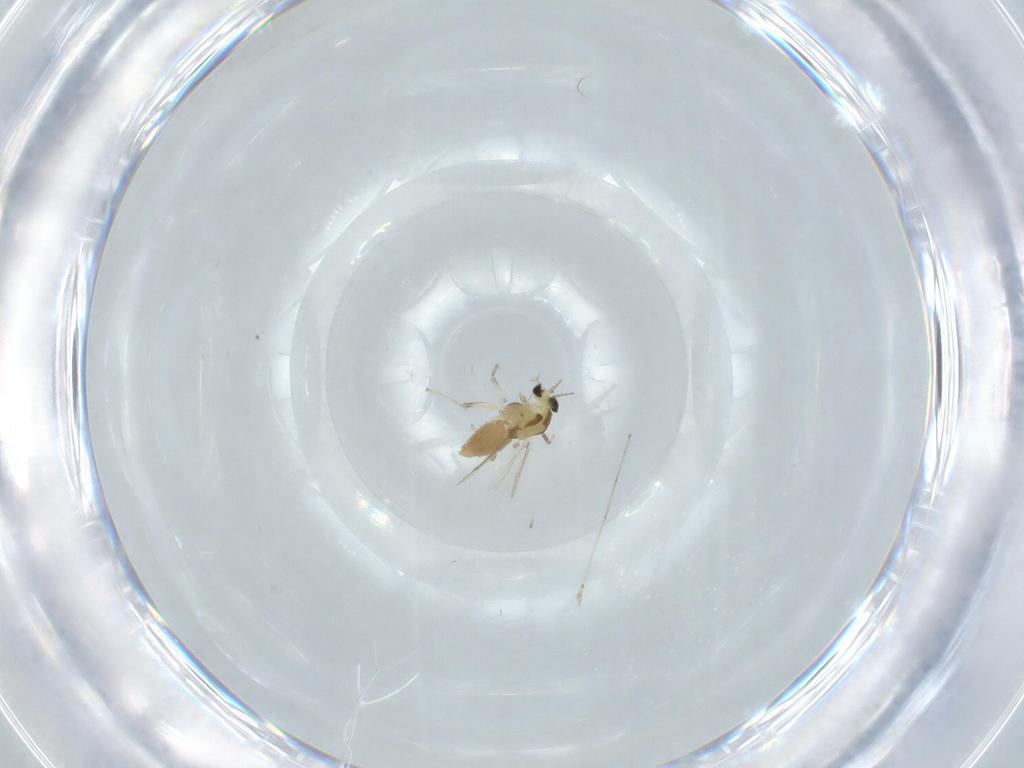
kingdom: Animalia
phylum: Arthropoda
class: Insecta
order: Diptera
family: Chironomidae
